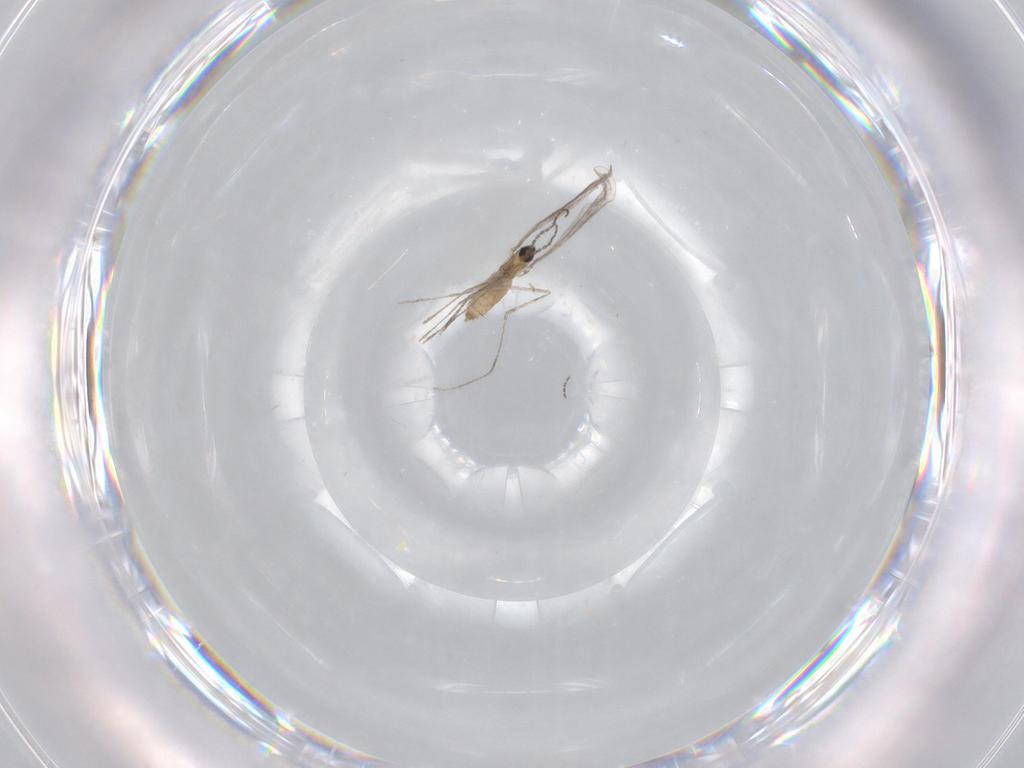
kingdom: Animalia
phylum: Arthropoda
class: Insecta
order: Diptera
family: Cecidomyiidae
